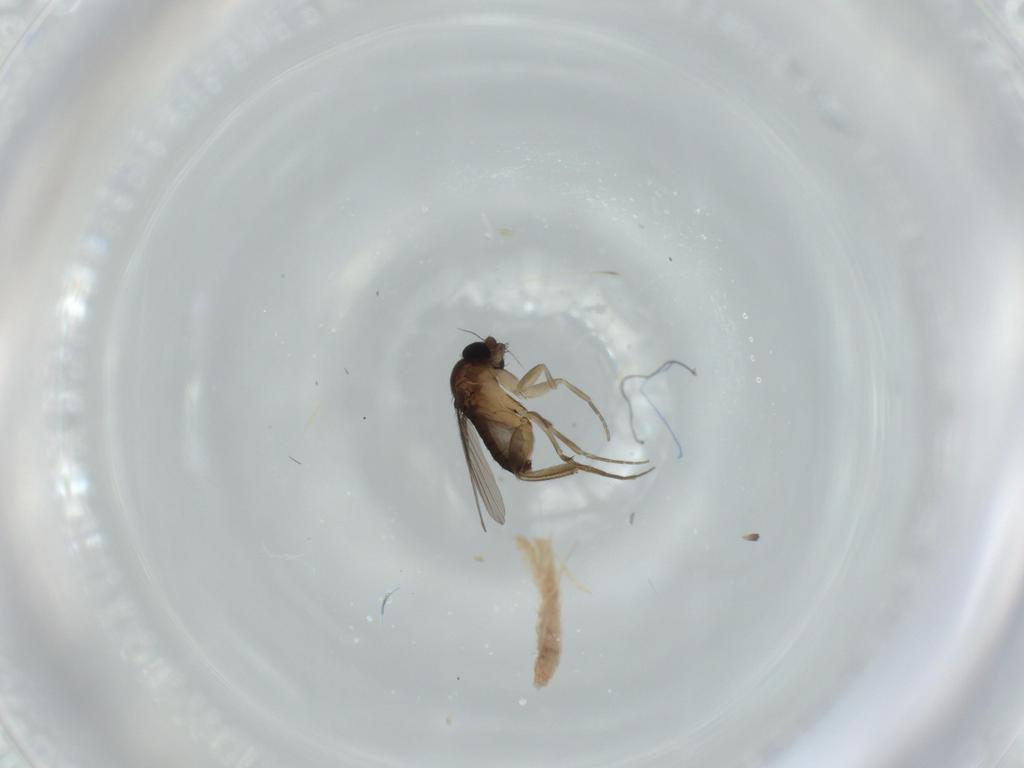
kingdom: Animalia
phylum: Arthropoda
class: Insecta
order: Diptera
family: Phoridae
